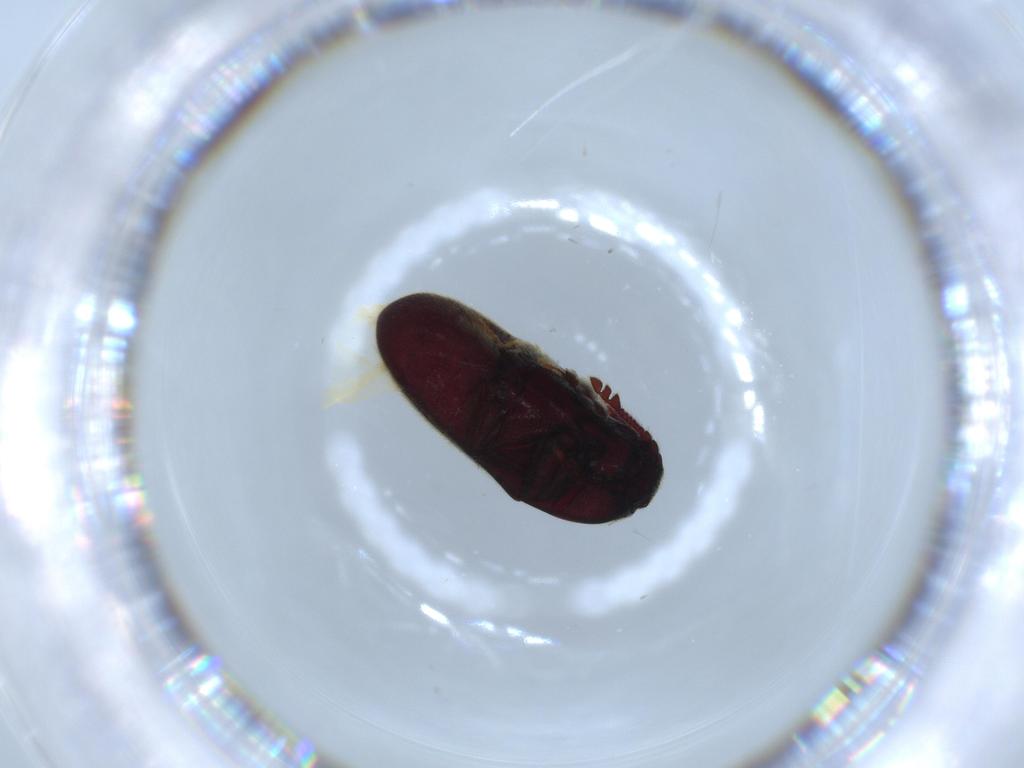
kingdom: Animalia
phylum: Arthropoda
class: Insecta
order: Coleoptera
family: Throscidae
